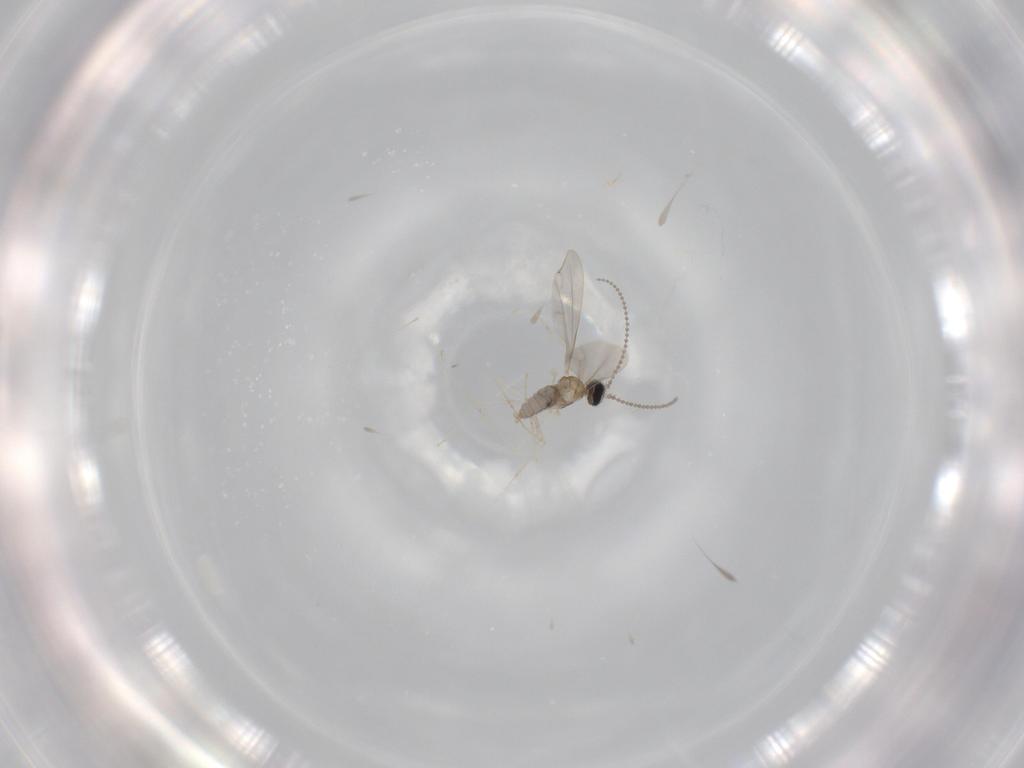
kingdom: Animalia
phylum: Arthropoda
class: Insecta
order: Diptera
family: Cecidomyiidae
